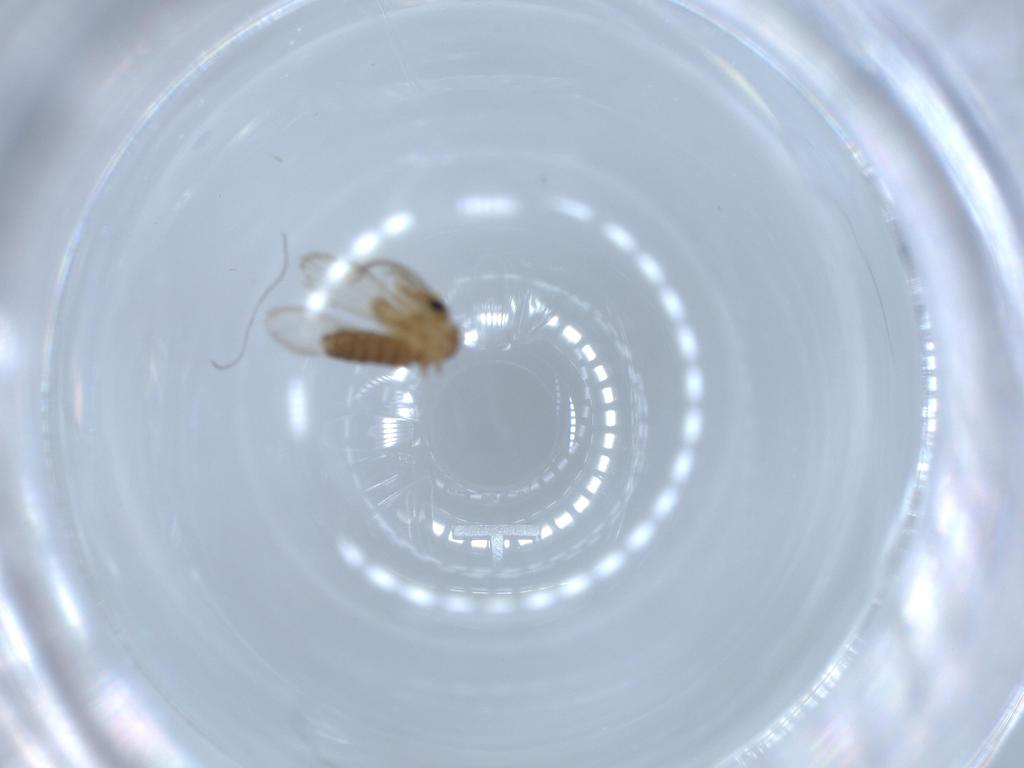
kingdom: Animalia
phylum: Arthropoda
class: Insecta
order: Diptera
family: Psychodidae
